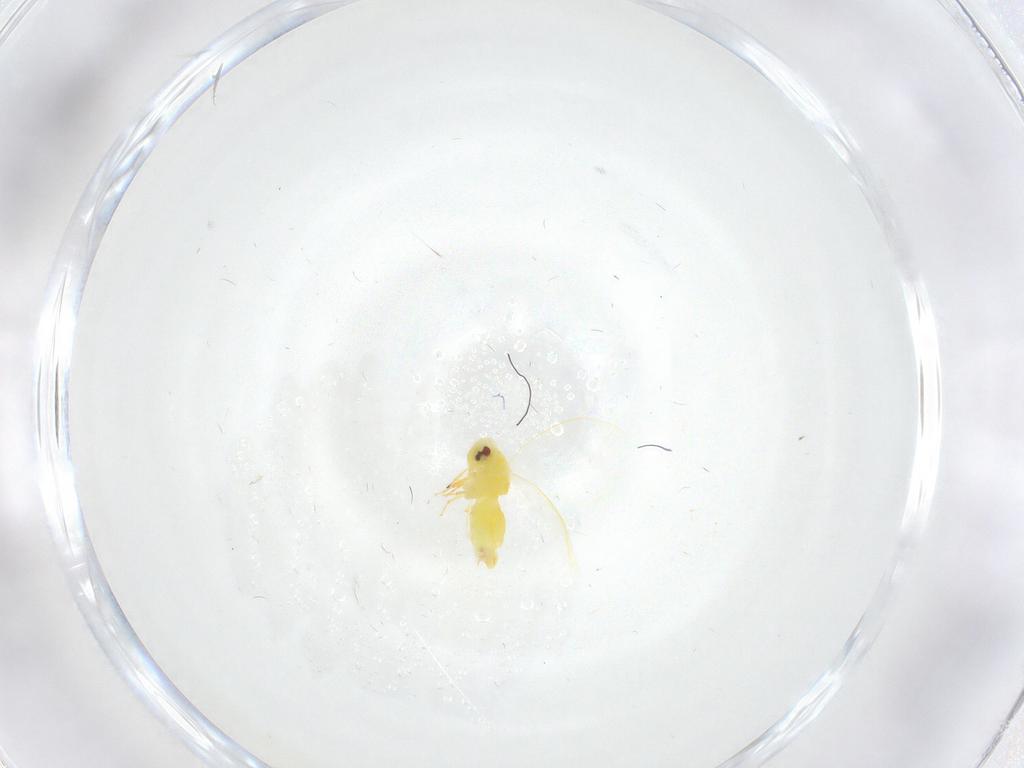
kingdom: Animalia
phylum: Arthropoda
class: Insecta
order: Hemiptera
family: Aleyrodidae
